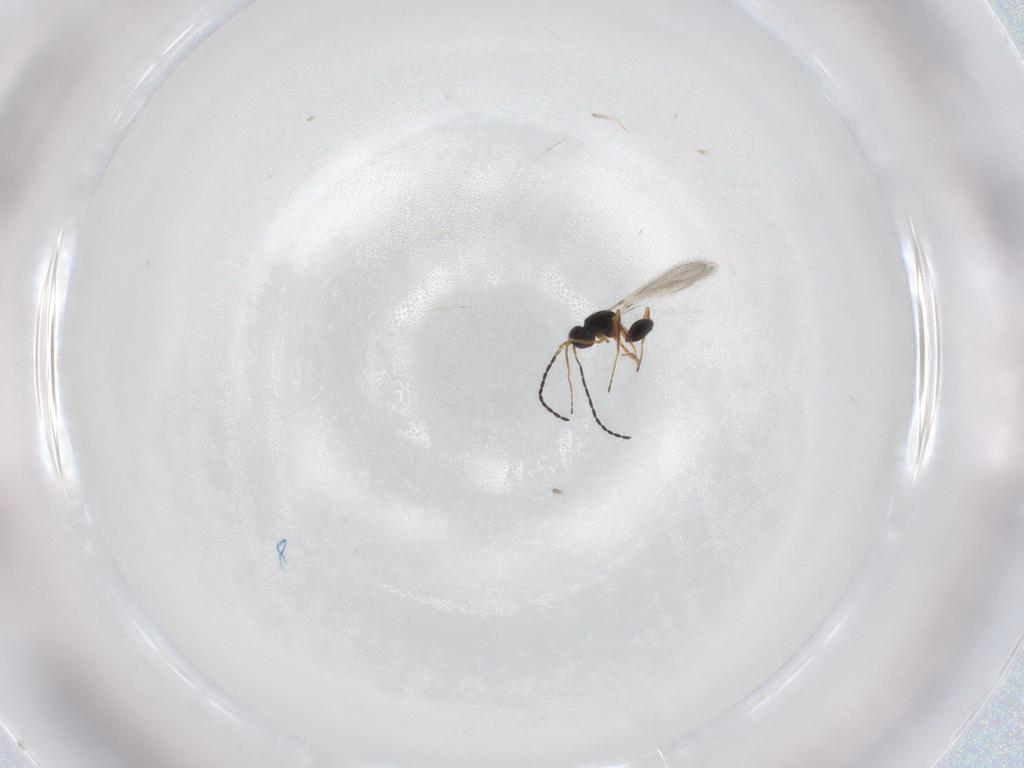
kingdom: Animalia
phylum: Arthropoda
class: Insecta
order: Hymenoptera
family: Mymaridae
